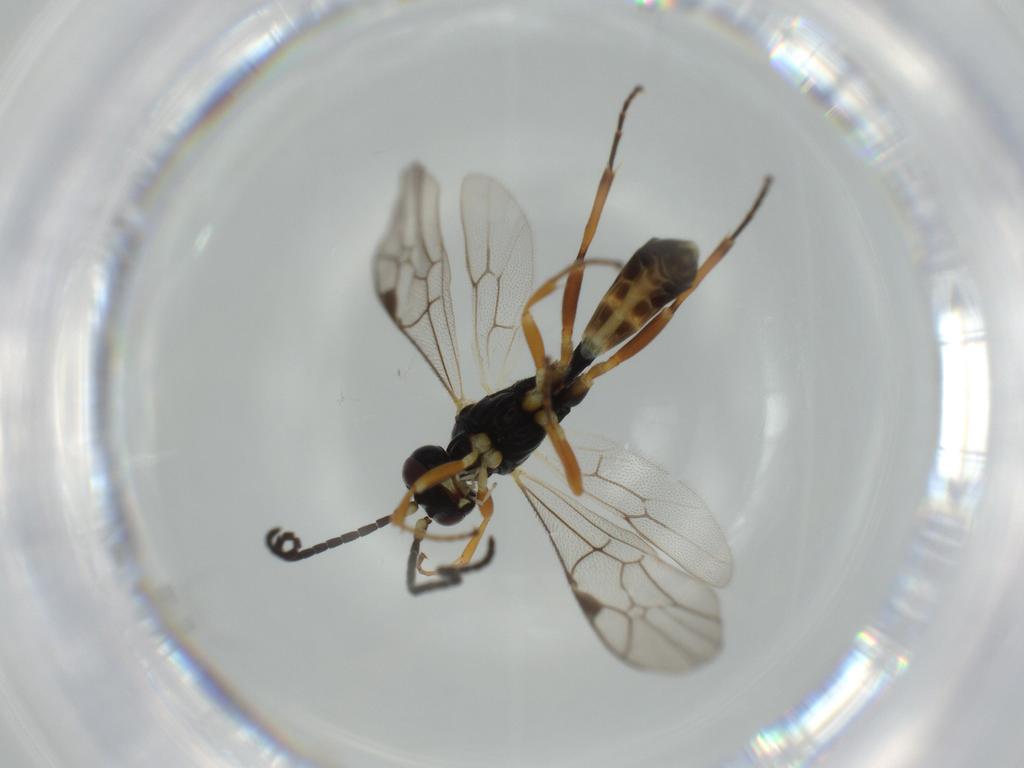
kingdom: Animalia
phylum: Arthropoda
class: Insecta
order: Hymenoptera
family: Ichneumonidae
